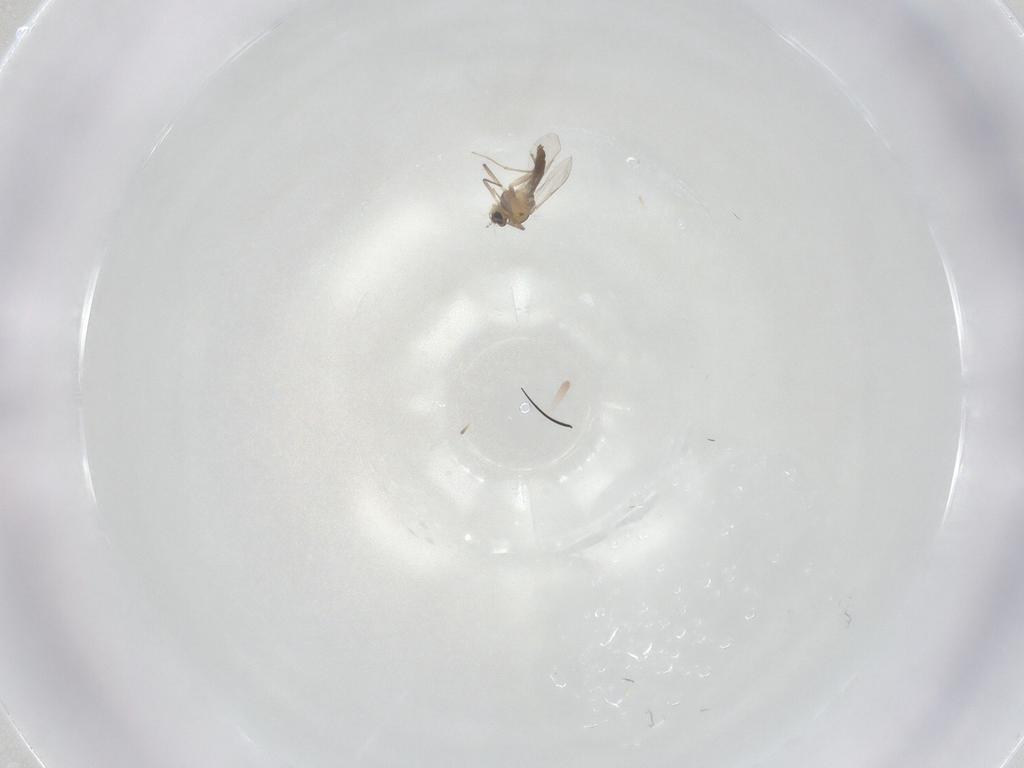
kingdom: Animalia
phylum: Arthropoda
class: Insecta
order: Diptera
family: Chironomidae
